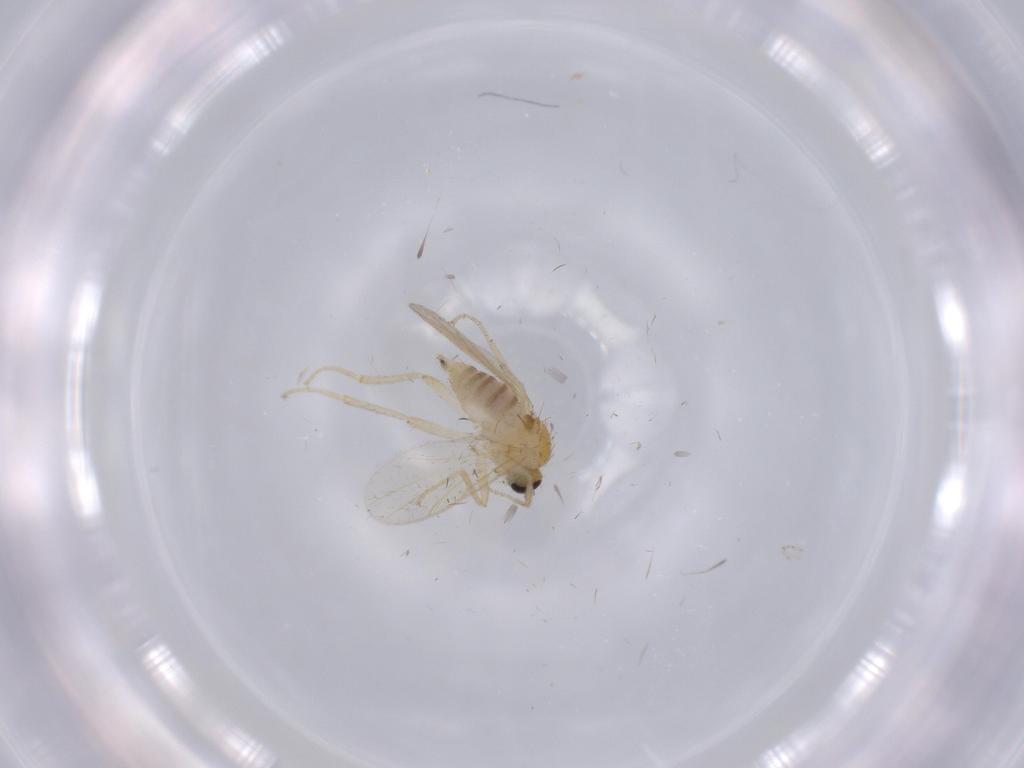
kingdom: Animalia
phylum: Arthropoda
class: Insecta
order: Diptera
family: Hybotidae
